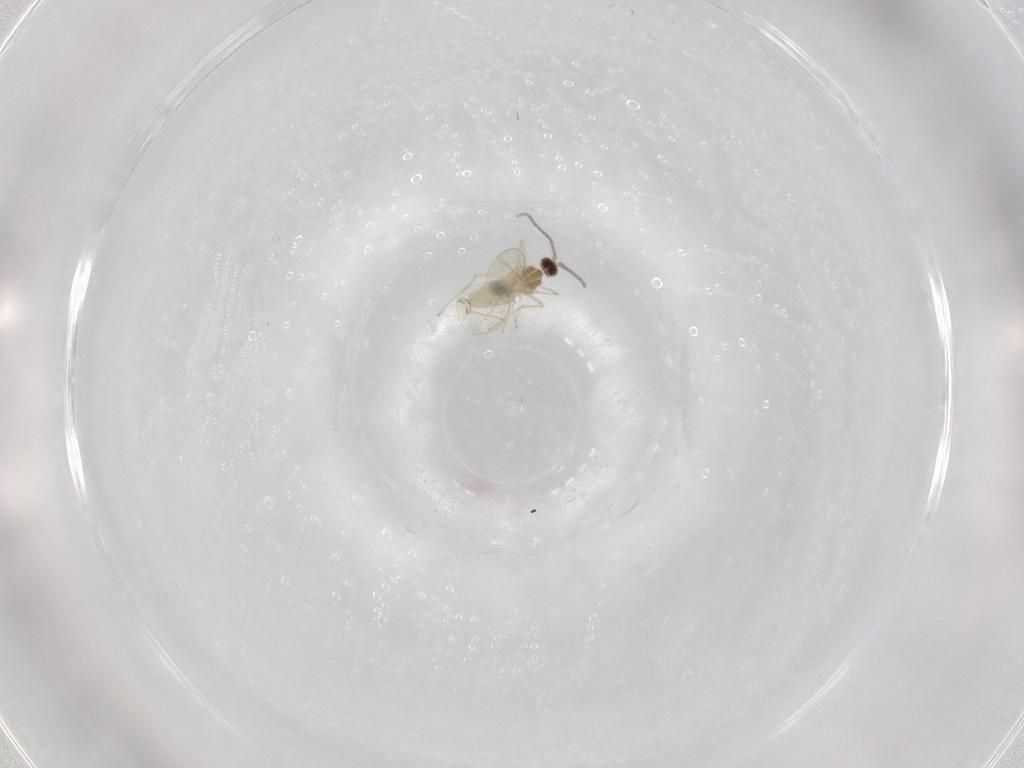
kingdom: Animalia
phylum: Arthropoda
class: Insecta
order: Diptera
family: Cecidomyiidae
